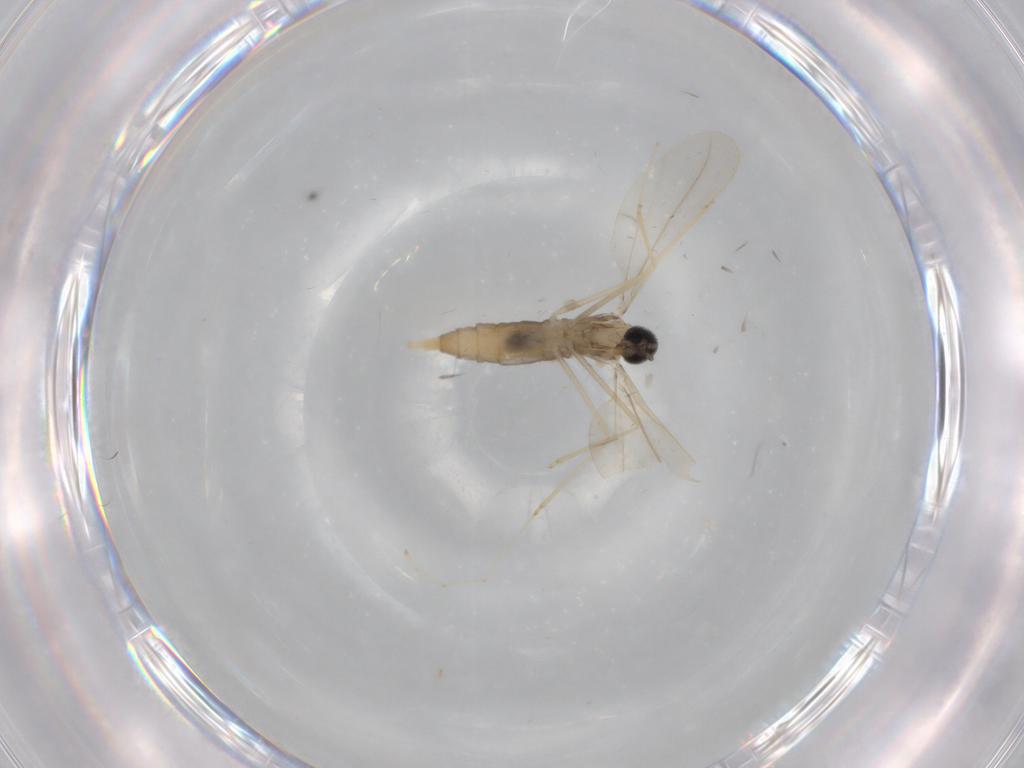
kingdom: Animalia
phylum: Arthropoda
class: Insecta
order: Diptera
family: Cecidomyiidae
